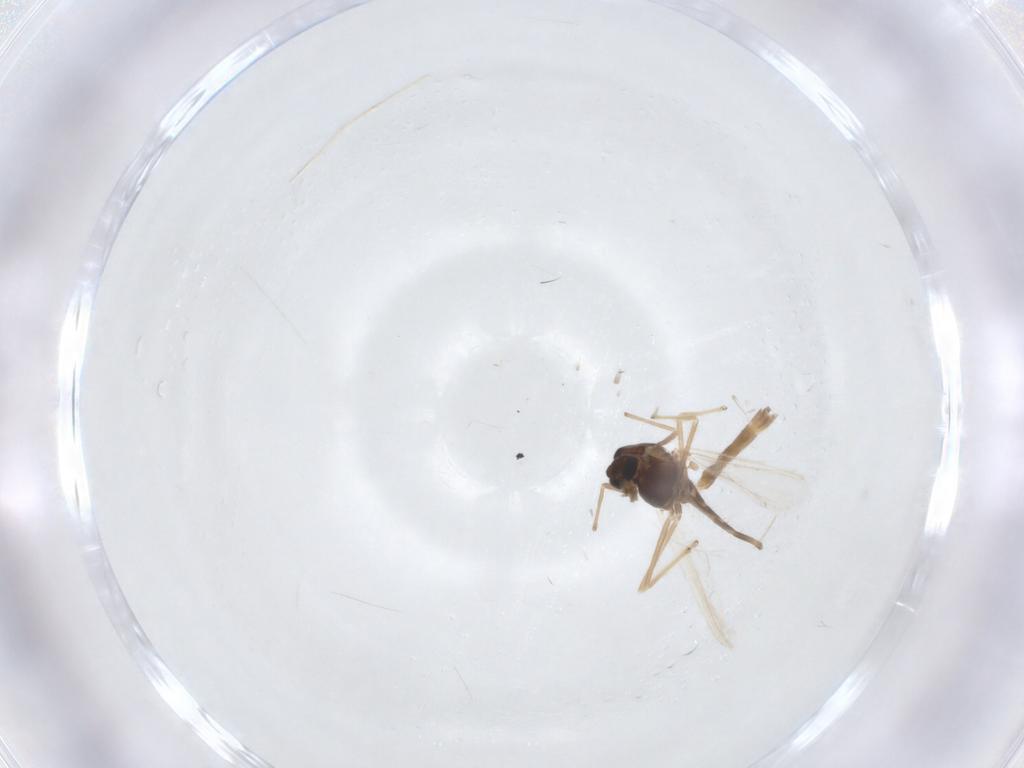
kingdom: Animalia
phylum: Arthropoda
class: Insecta
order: Diptera
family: Chironomidae
